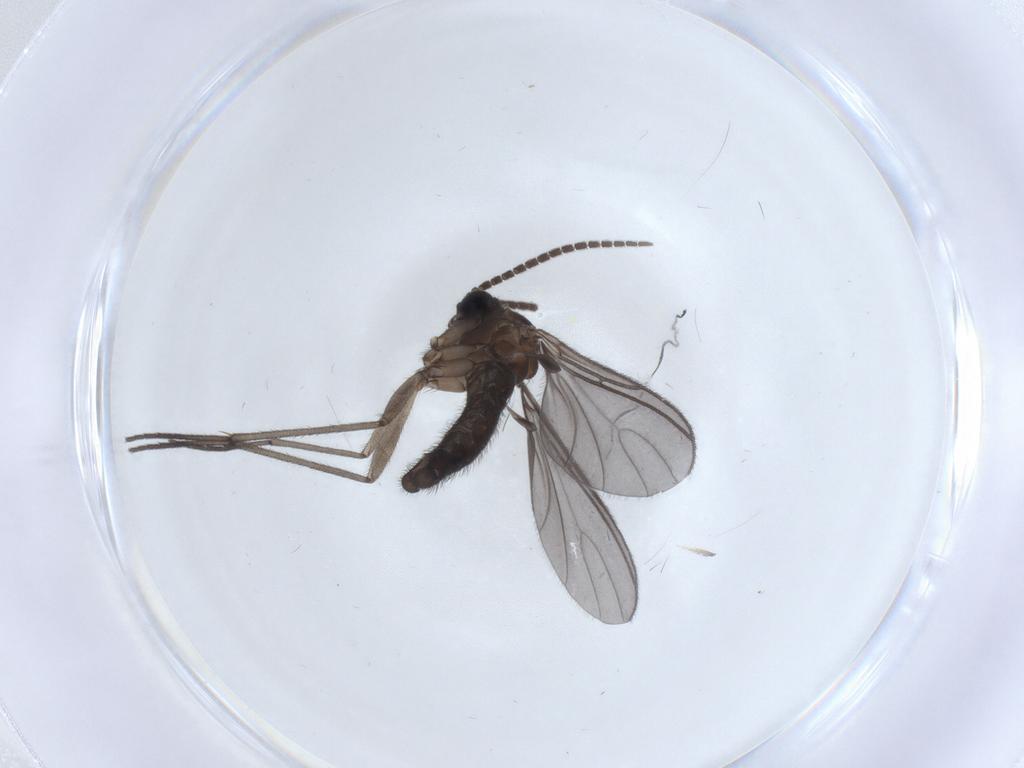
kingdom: Animalia
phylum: Arthropoda
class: Insecta
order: Diptera
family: Sciaridae
